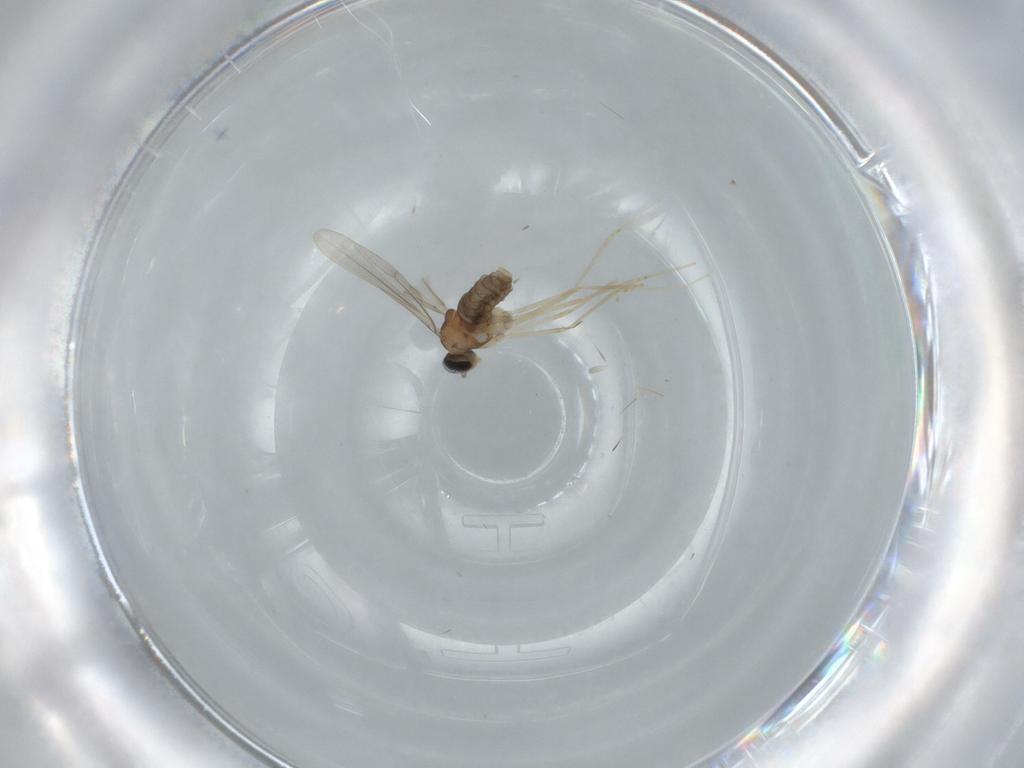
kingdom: Animalia
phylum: Arthropoda
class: Insecta
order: Diptera
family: Cecidomyiidae
